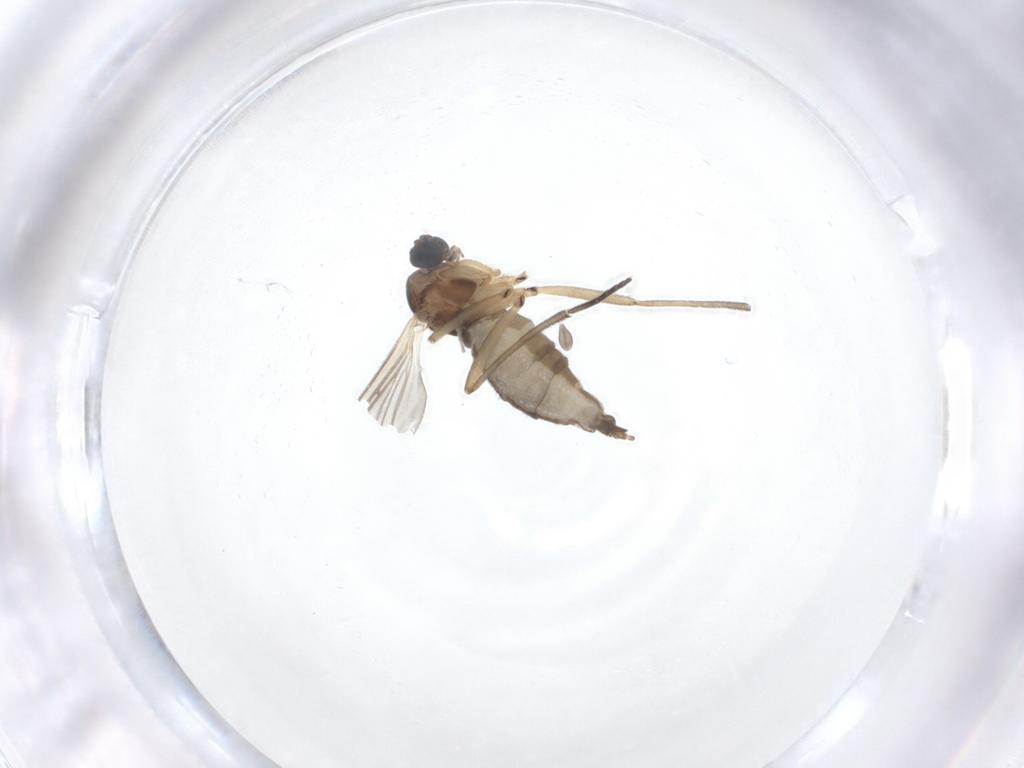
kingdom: Animalia
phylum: Arthropoda
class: Insecta
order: Diptera
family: Sciaridae
